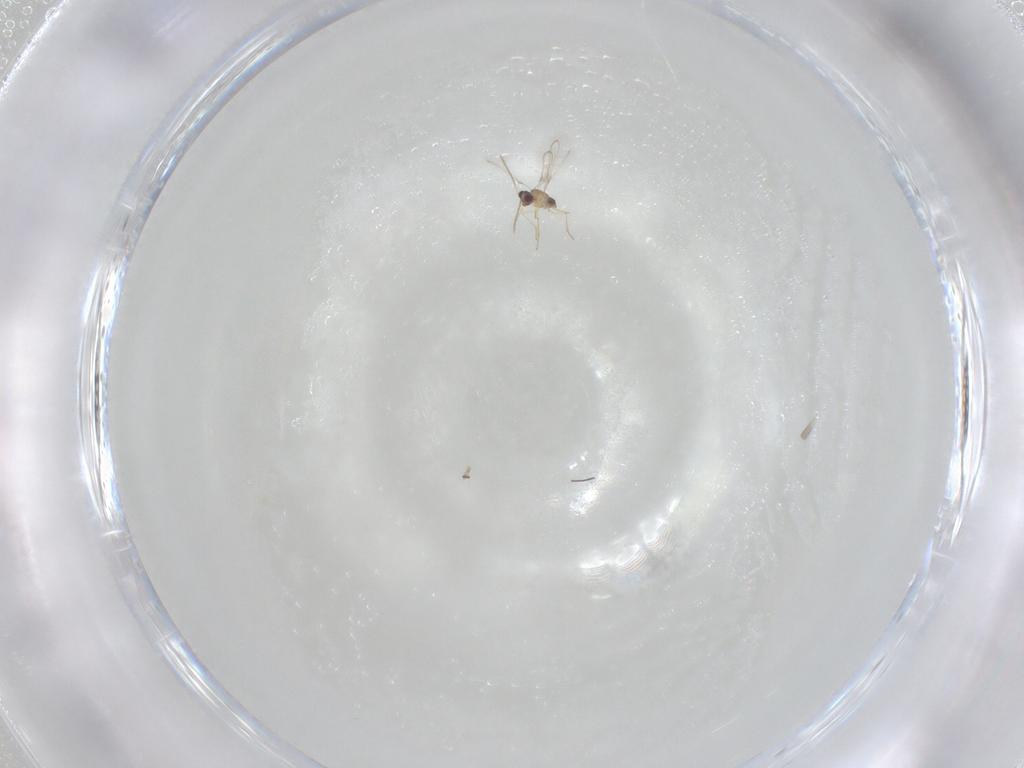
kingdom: Animalia
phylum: Arthropoda
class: Insecta
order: Hymenoptera
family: Mymaridae
